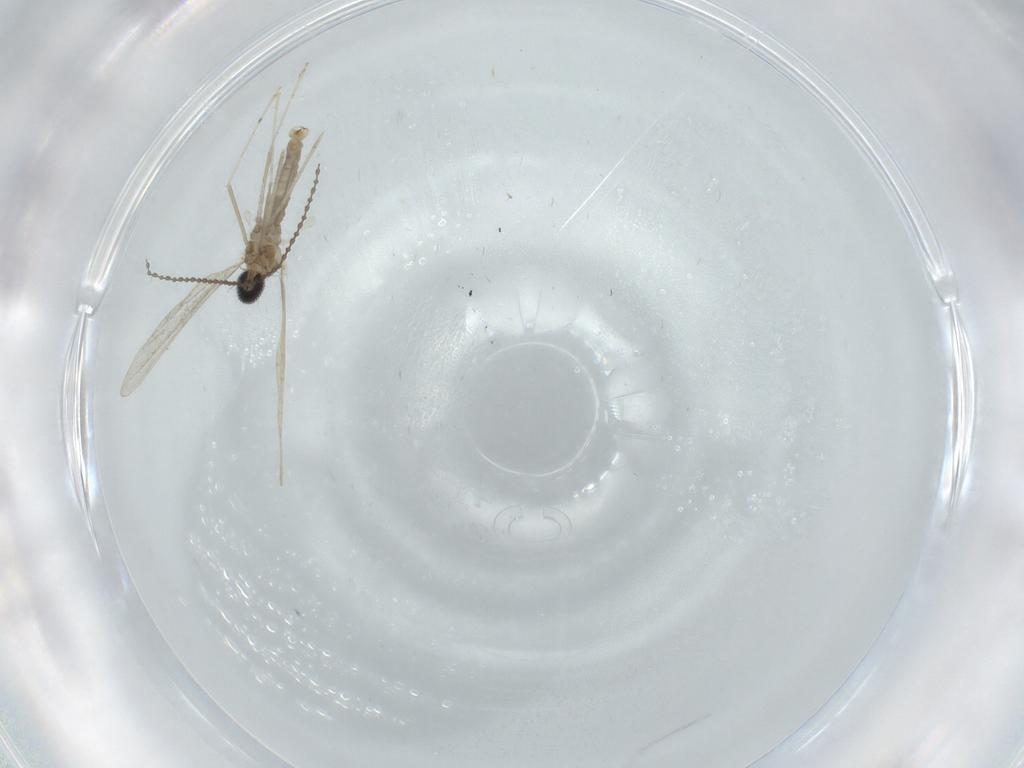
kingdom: Animalia
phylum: Arthropoda
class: Insecta
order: Diptera
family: Cecidomyiidae
